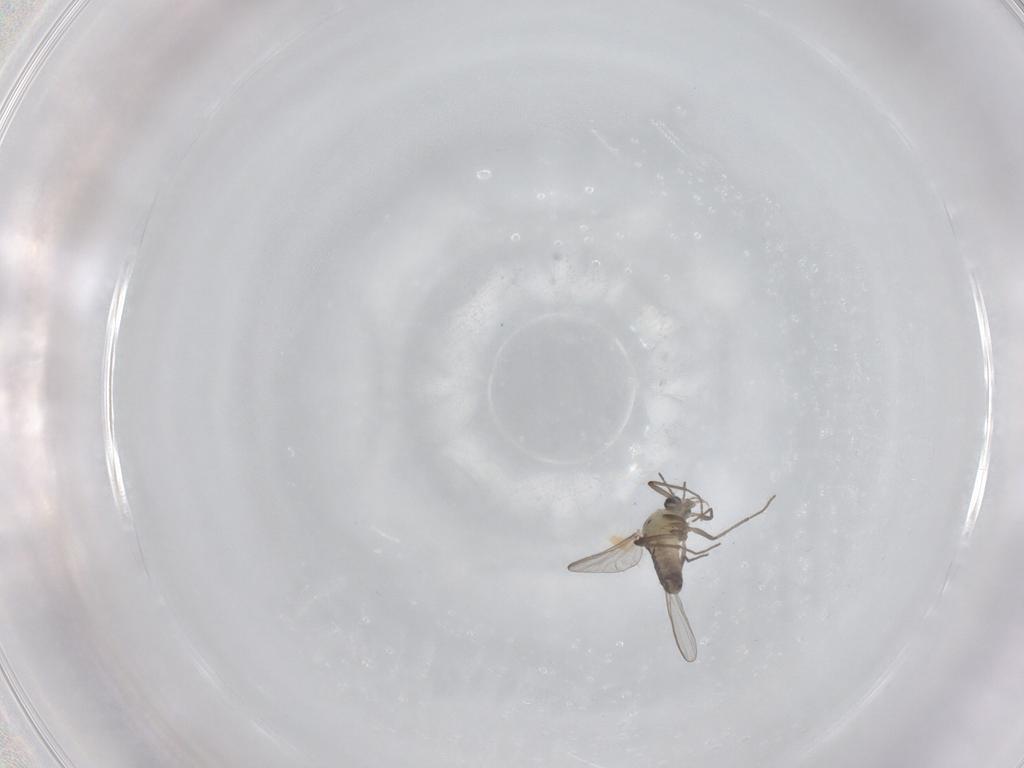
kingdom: Animalia
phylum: Arthropoda
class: Insecta
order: Diptera
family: Chironomidae
